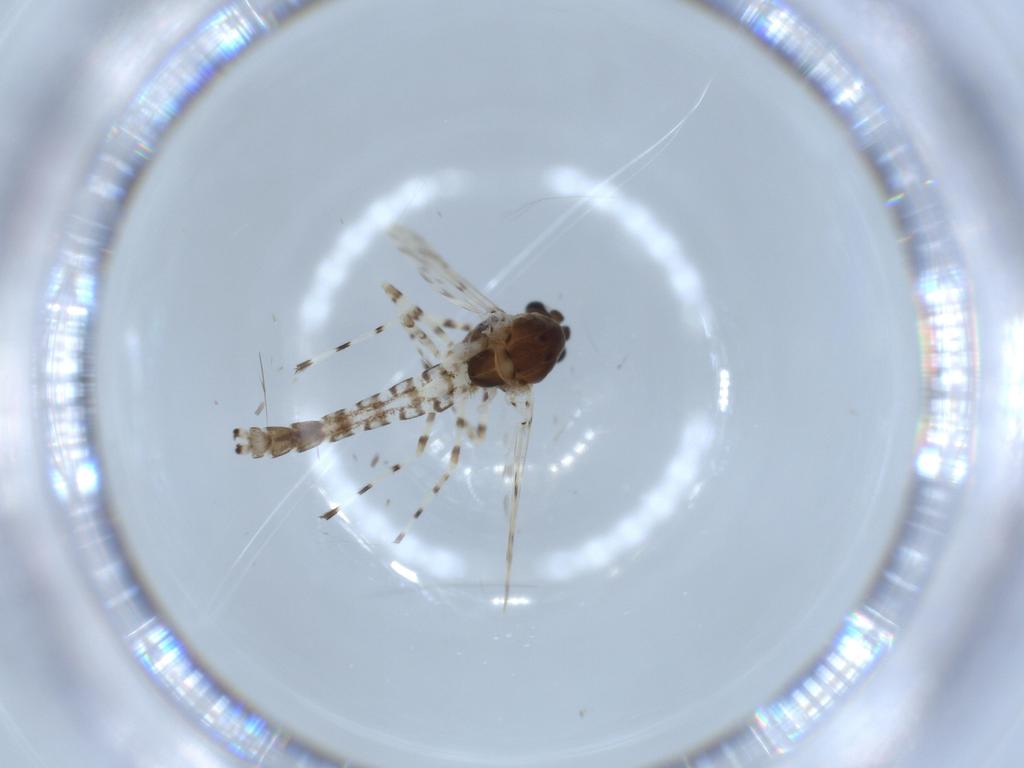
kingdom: Animalia
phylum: Arthropoda
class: Insecta
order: Diptera
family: Chironomidae
